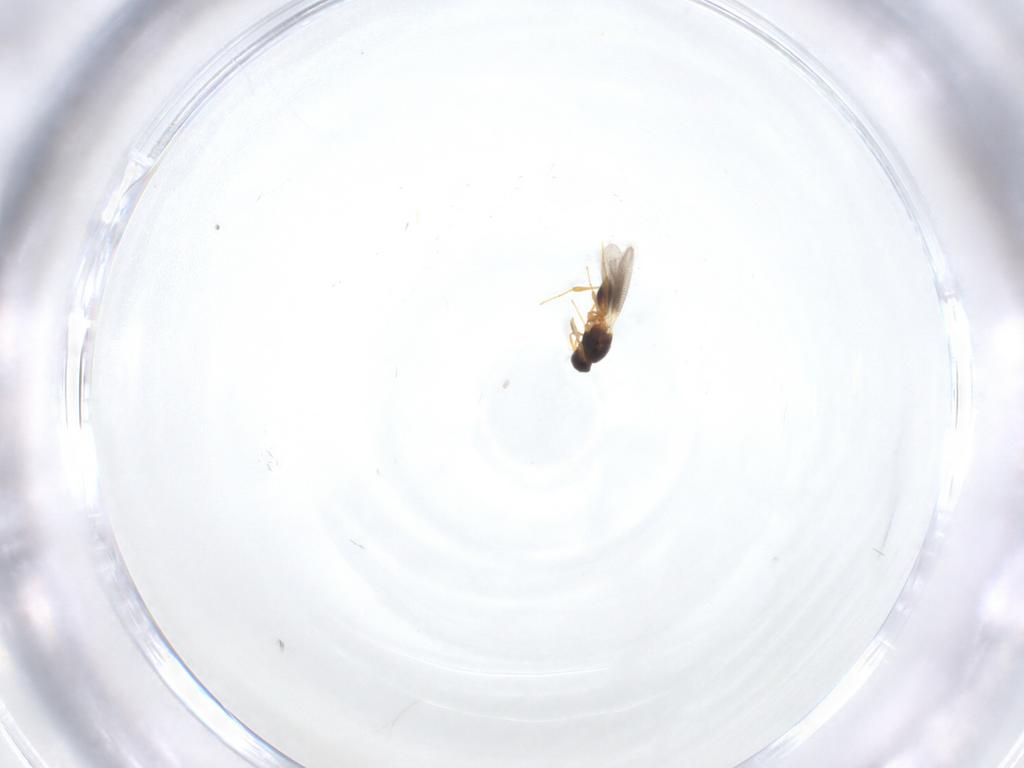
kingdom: Animalia
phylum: Arthropoda
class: Insecta
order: Hymenoptera
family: Platygastridae
